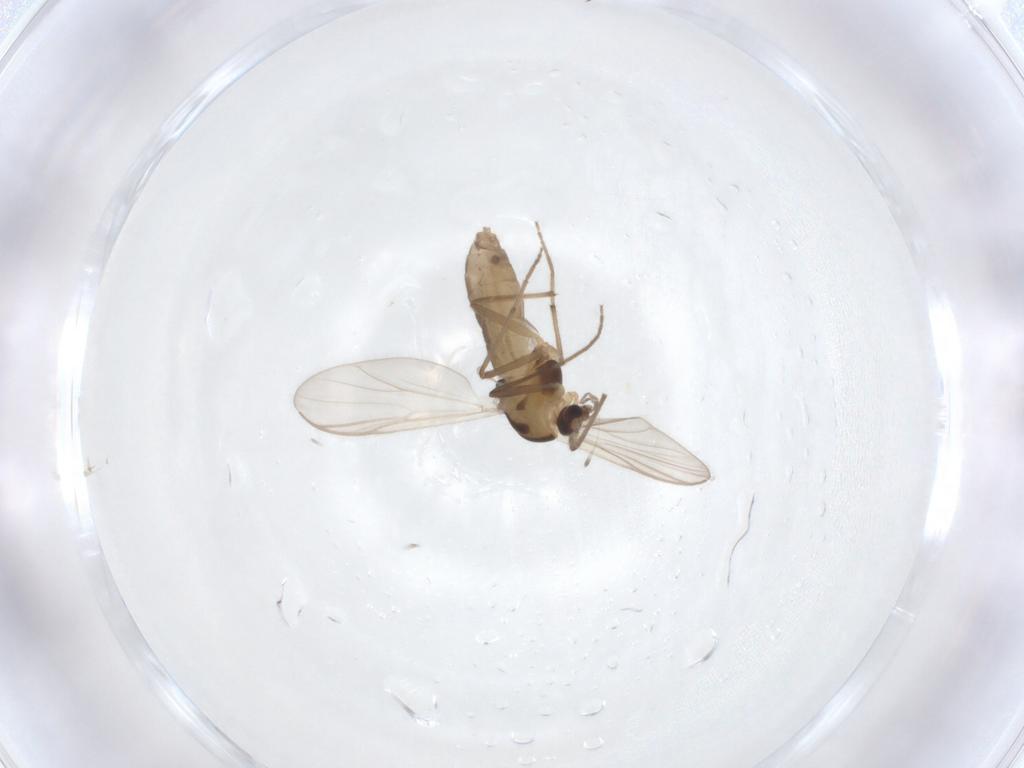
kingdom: Animalia
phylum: Arthropoda
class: Insecta
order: Diptera
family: Chironomidae
